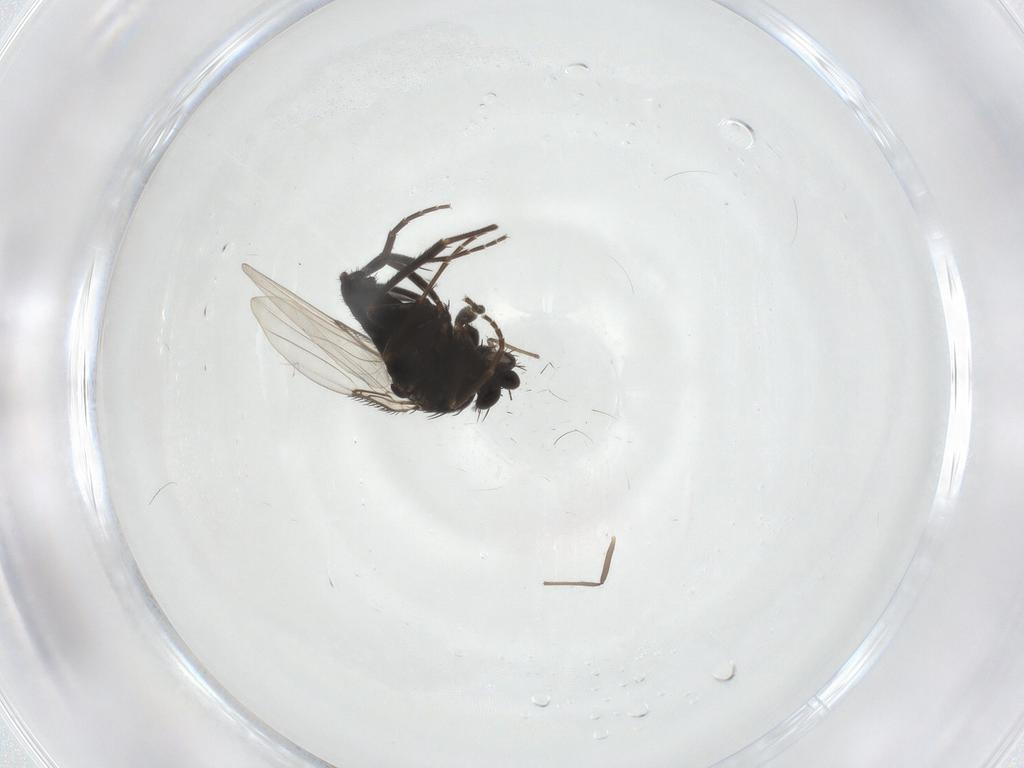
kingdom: Animalia
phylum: Arthropoda
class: Insecta
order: Diptera
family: Phoridae
